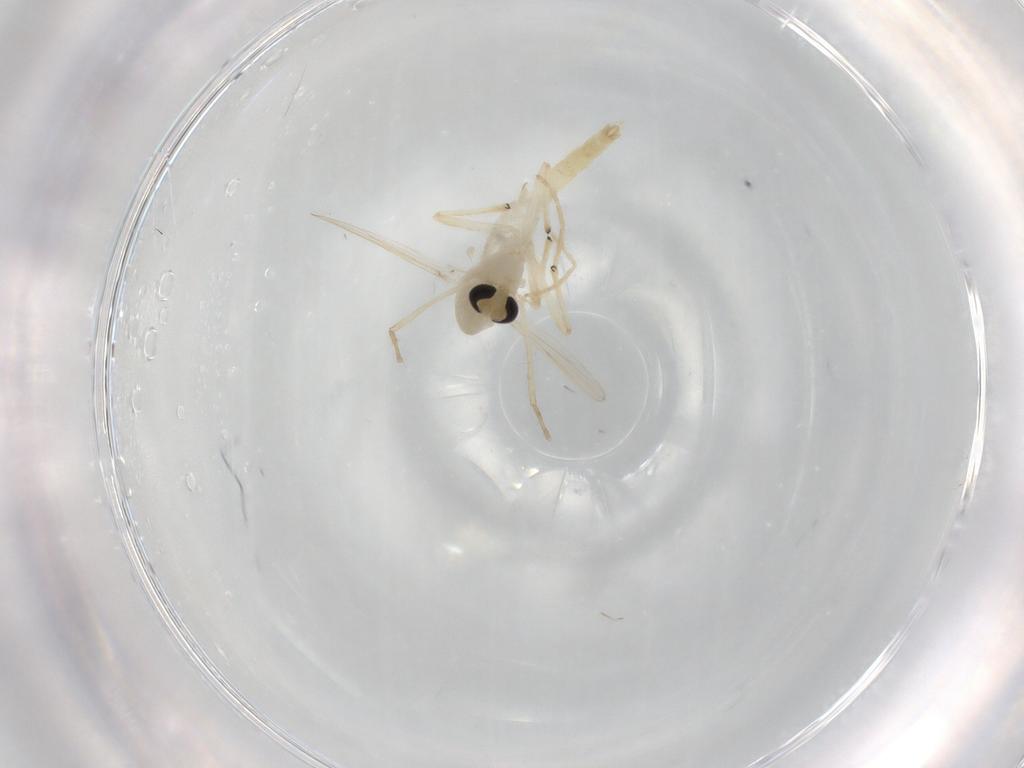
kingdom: Animalia
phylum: Arthropoda
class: Insecta
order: Diptera
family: Chironomidae
